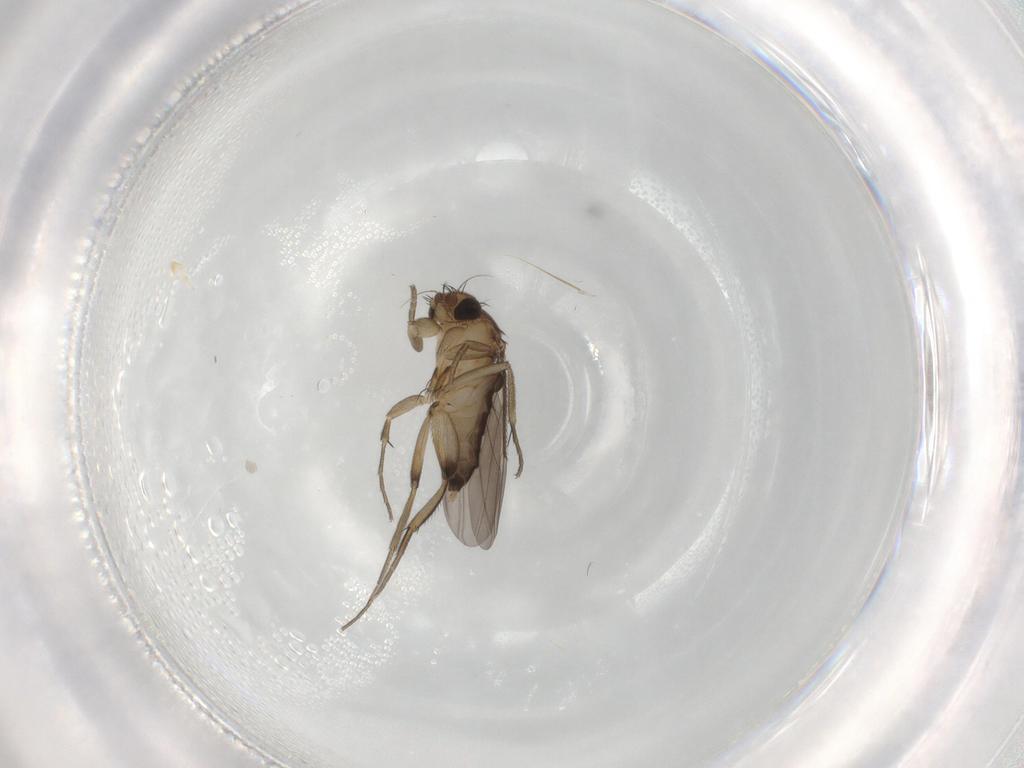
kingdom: Animalia
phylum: Arthropoda
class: Insecta
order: Diptera
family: Phoridae
